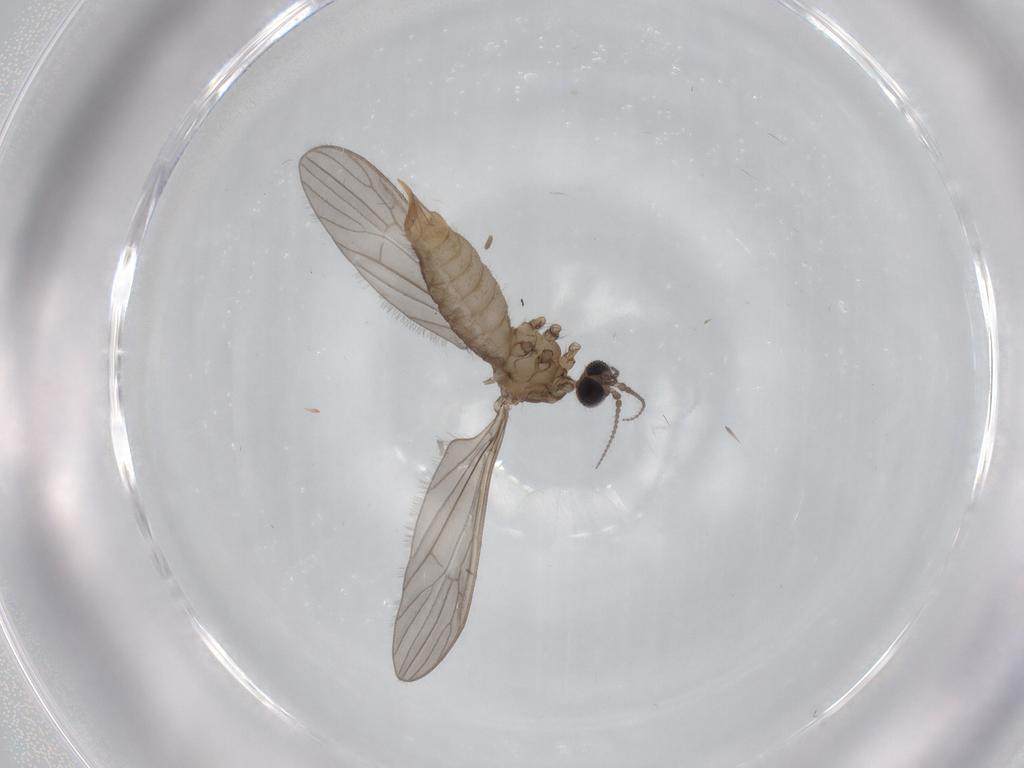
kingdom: Animalia
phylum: Arthropoda
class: Insecta
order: Diptera
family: Limoniidae
